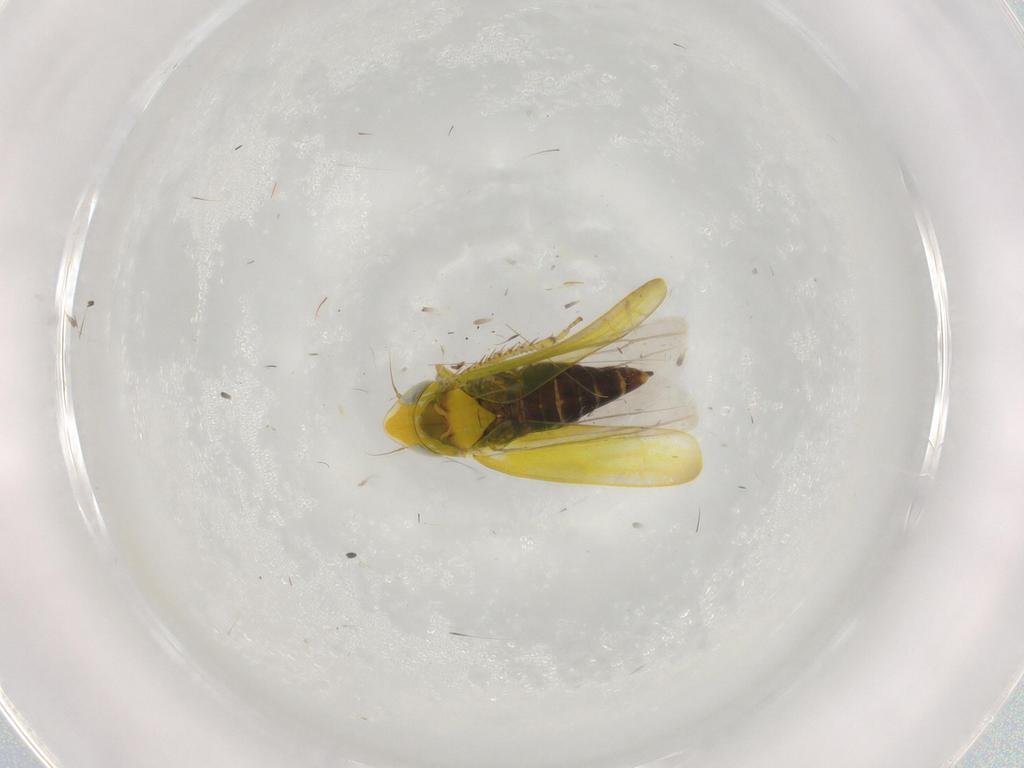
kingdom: Animalia
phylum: Arthropoda
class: Insecta
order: Hemiptera
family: Cicadellidae
